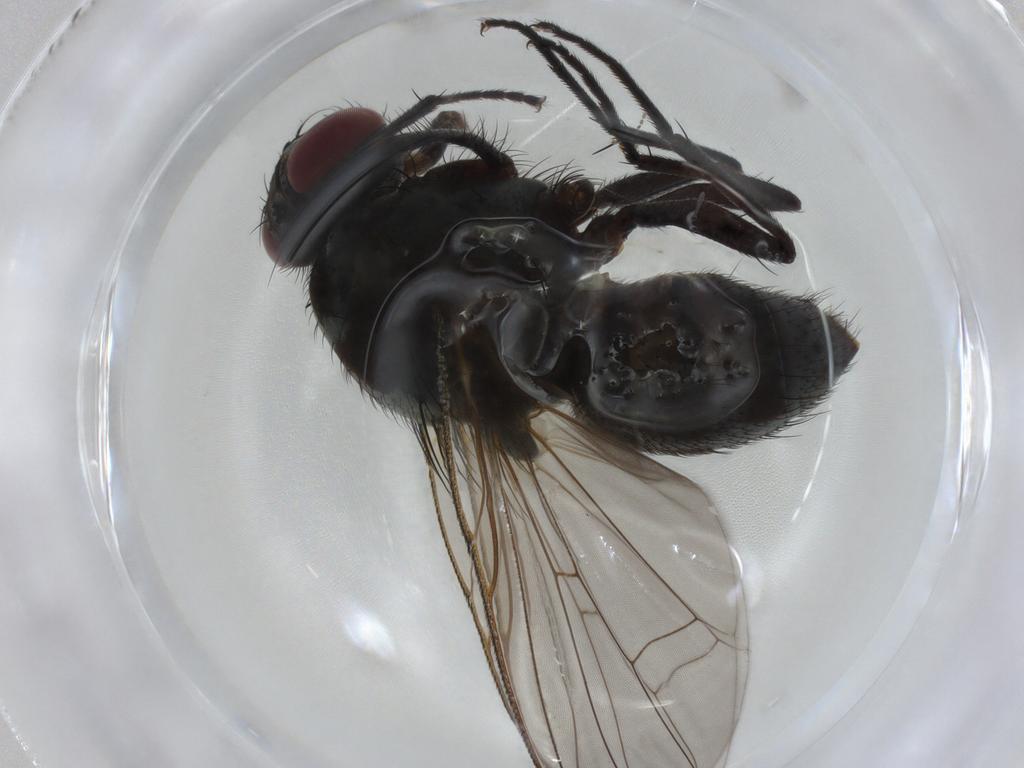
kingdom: Animalia
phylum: Arthropoda
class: Insecta
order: Diptera
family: Muscidae
